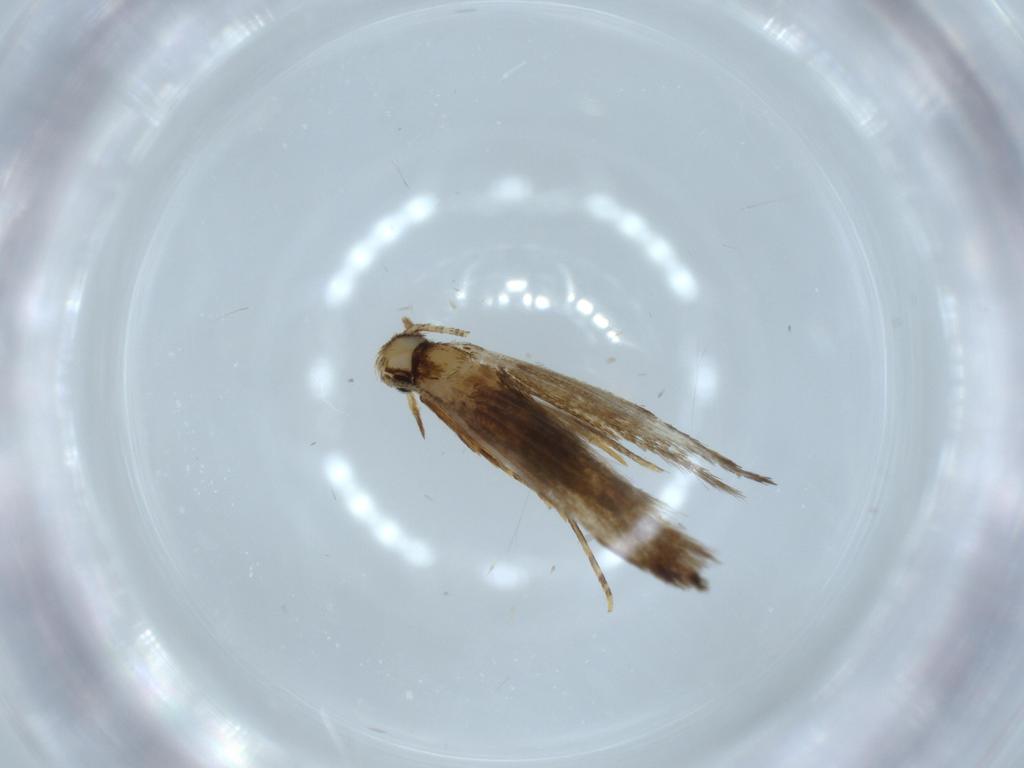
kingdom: Animalia
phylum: Arthropoda
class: Insecta
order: Lepidoptera
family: Tineidae
